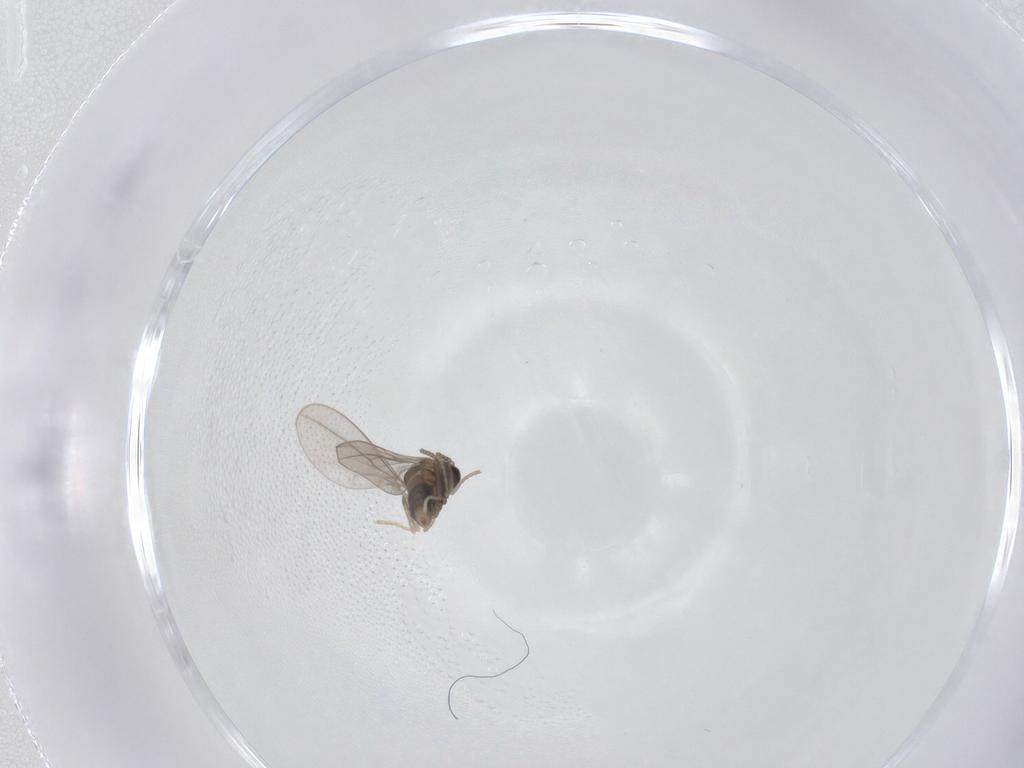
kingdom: Animalia
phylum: Arthropoda
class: Insecta
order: Diptera
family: Cecidomyiidae
